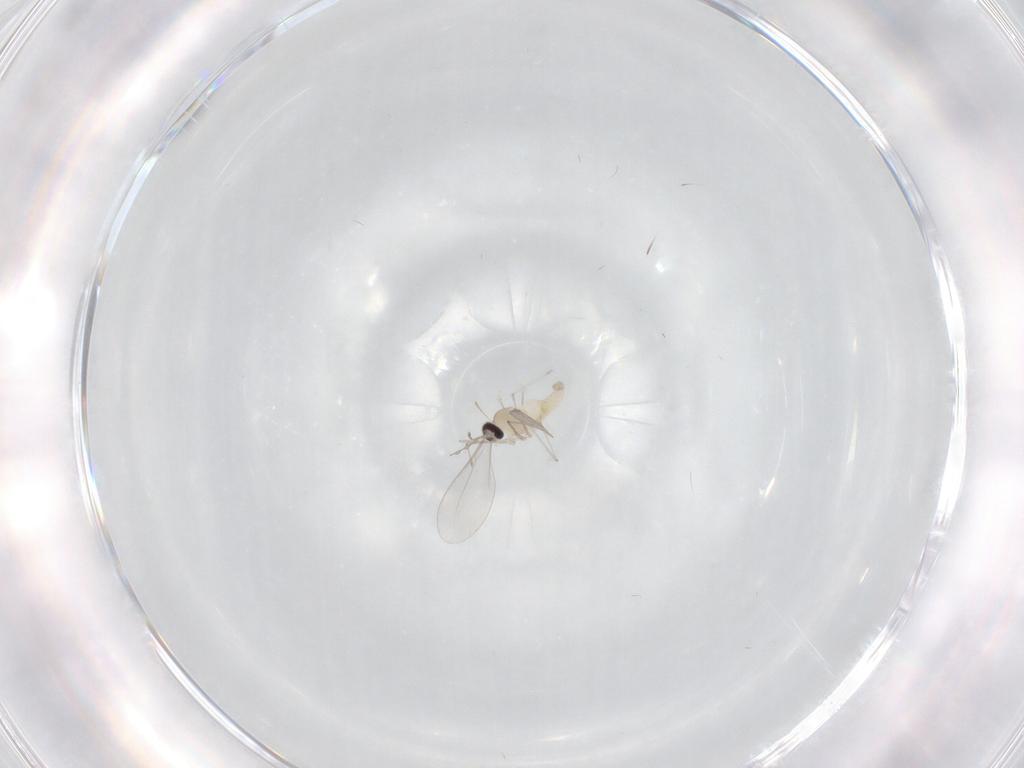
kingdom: Animalia
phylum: Arthropoda
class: Insecta
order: Diptera
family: Cecidomyiidae
